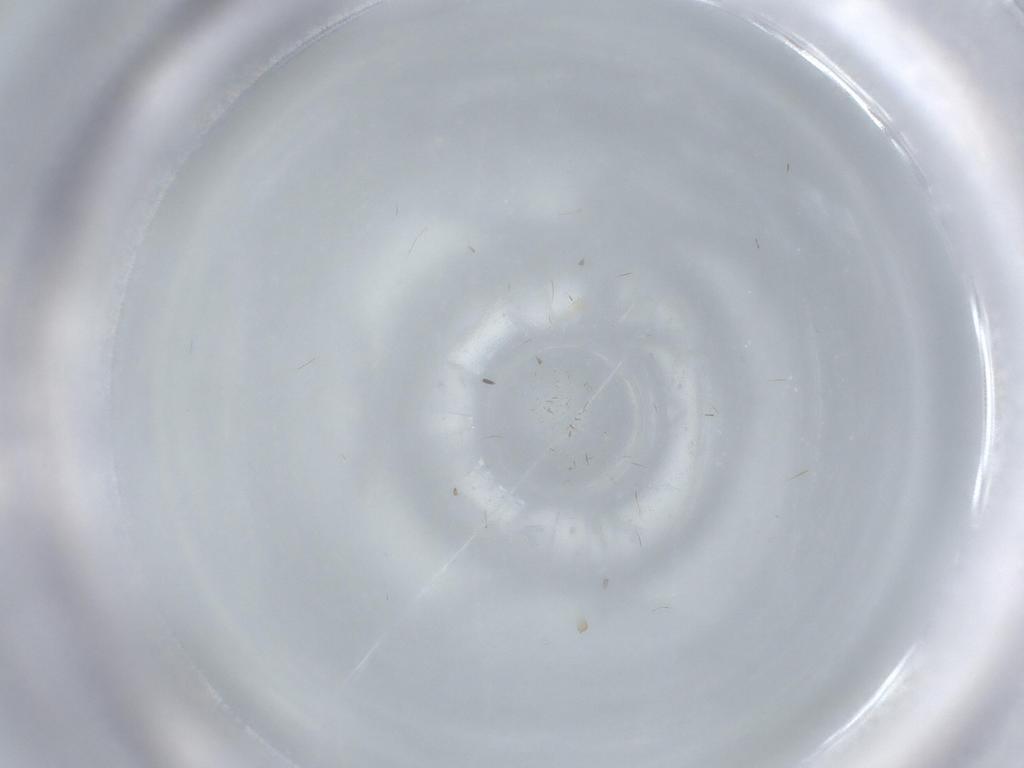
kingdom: Animalia
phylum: Arthropoda
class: Insecta
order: Diptera
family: Cecidomyiidae
